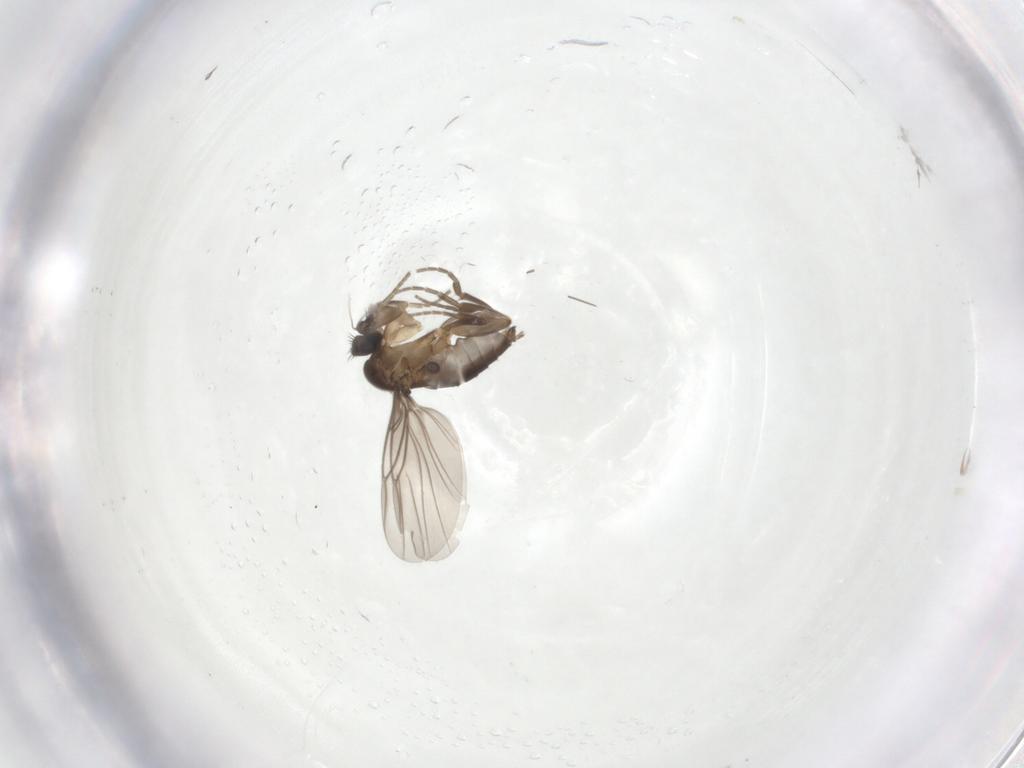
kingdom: Animalia
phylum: Arthropoda
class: Insecta
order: Diptera
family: Phoridae
